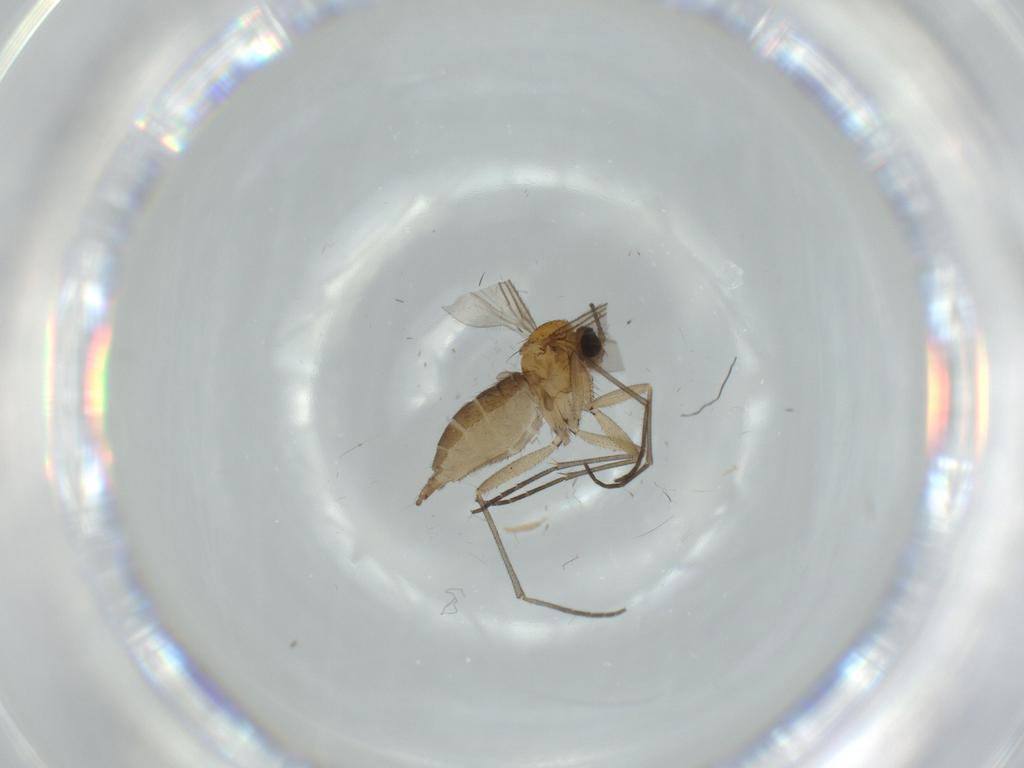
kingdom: Animalia
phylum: Arthropoda
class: Insecta
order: Diptera
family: Sciaridae
